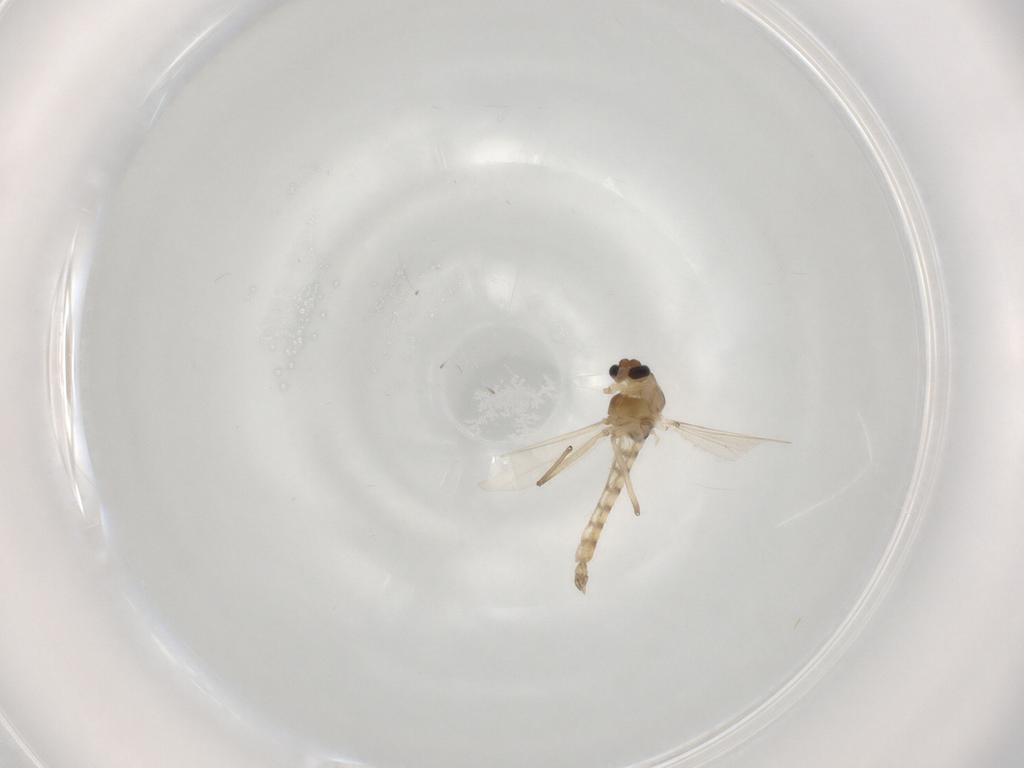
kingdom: Animalia
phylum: Arthropoda
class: Insecta
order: Diptera
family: Chironomidae
